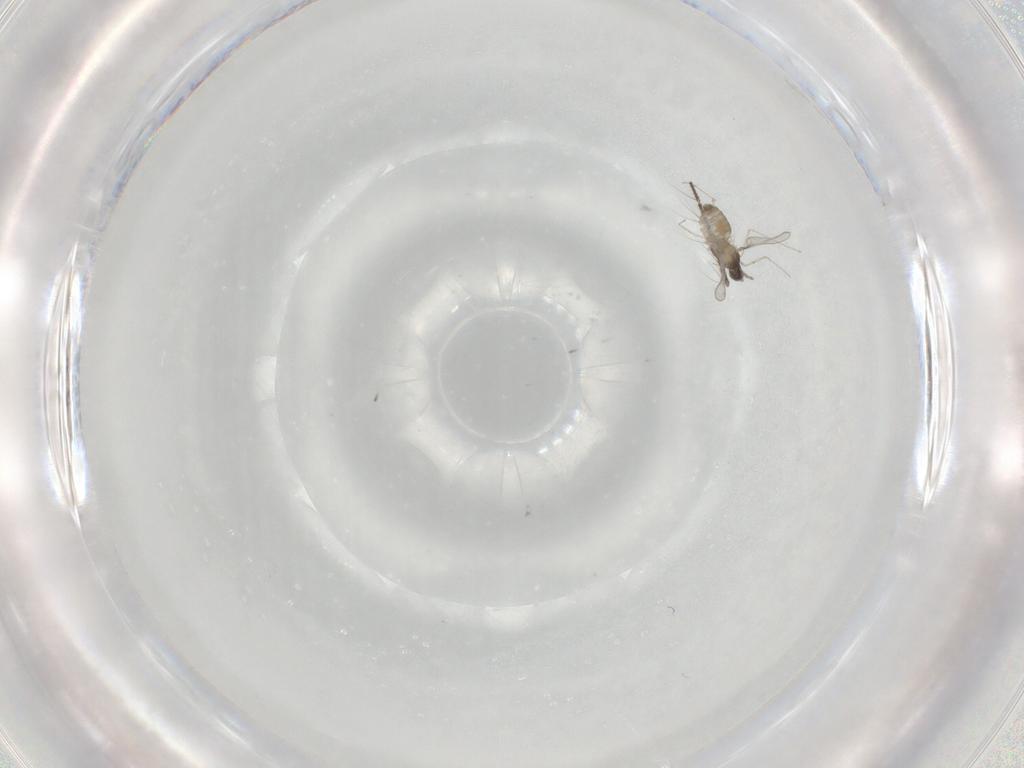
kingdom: Animalia
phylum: Arthropoda
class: Insecta
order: Diptera
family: Culicidae
